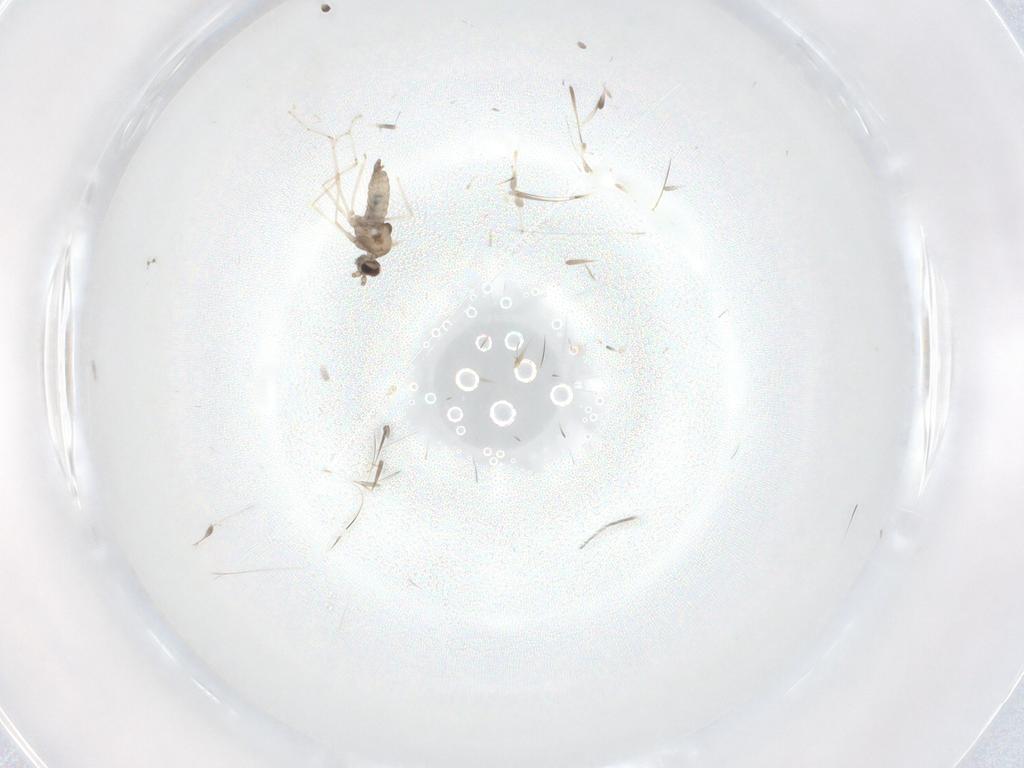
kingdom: Animalia
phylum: Arthropoda
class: Insecta
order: Diptera
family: Cecidomyiidae
